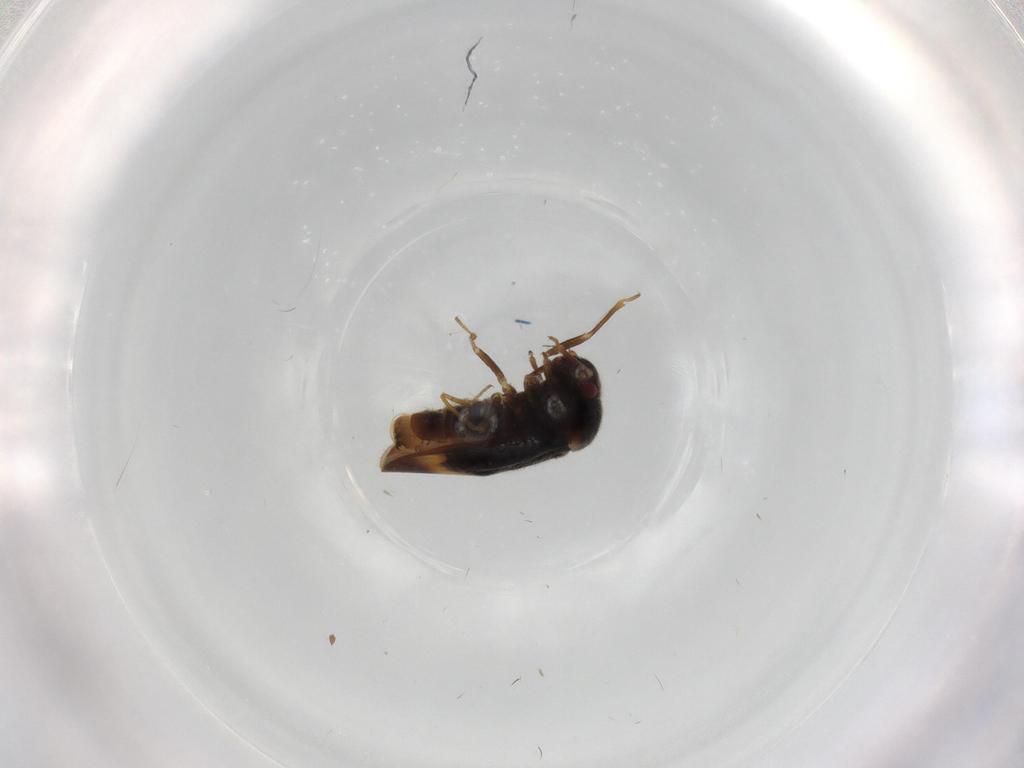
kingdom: Animalia
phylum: Arthropoda
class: Insecta
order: Hemiptera
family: Schizopteridae
